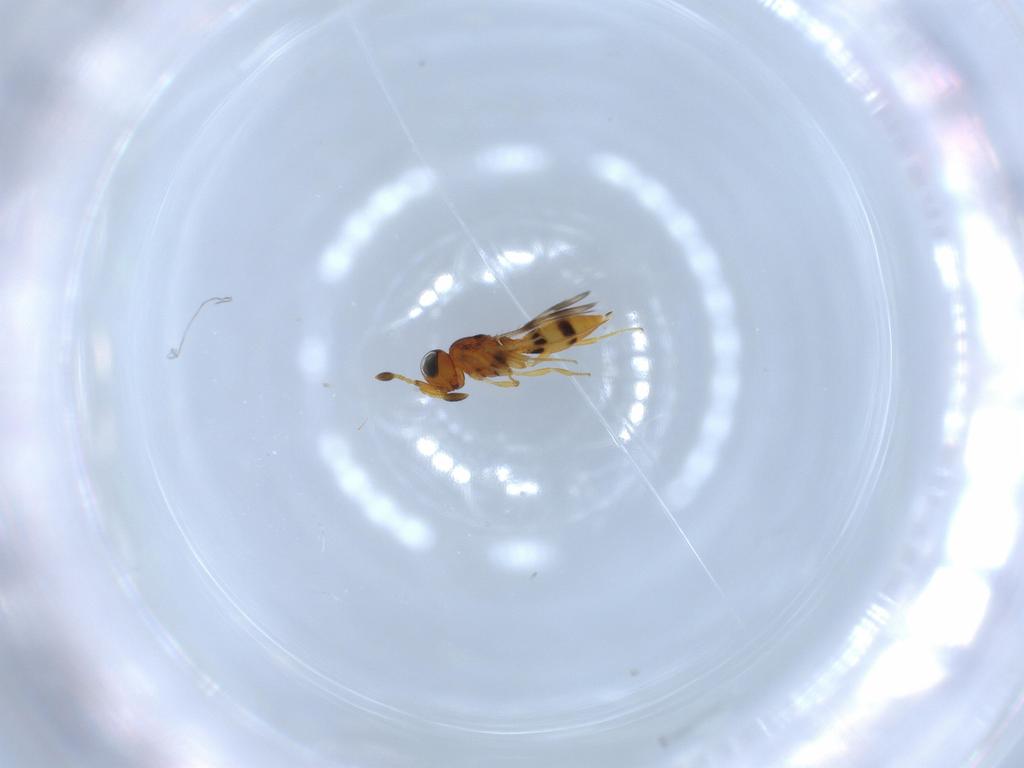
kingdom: Animalia
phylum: Arthropoda
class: Insecta
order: Hymenoptera
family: Scelionidae
